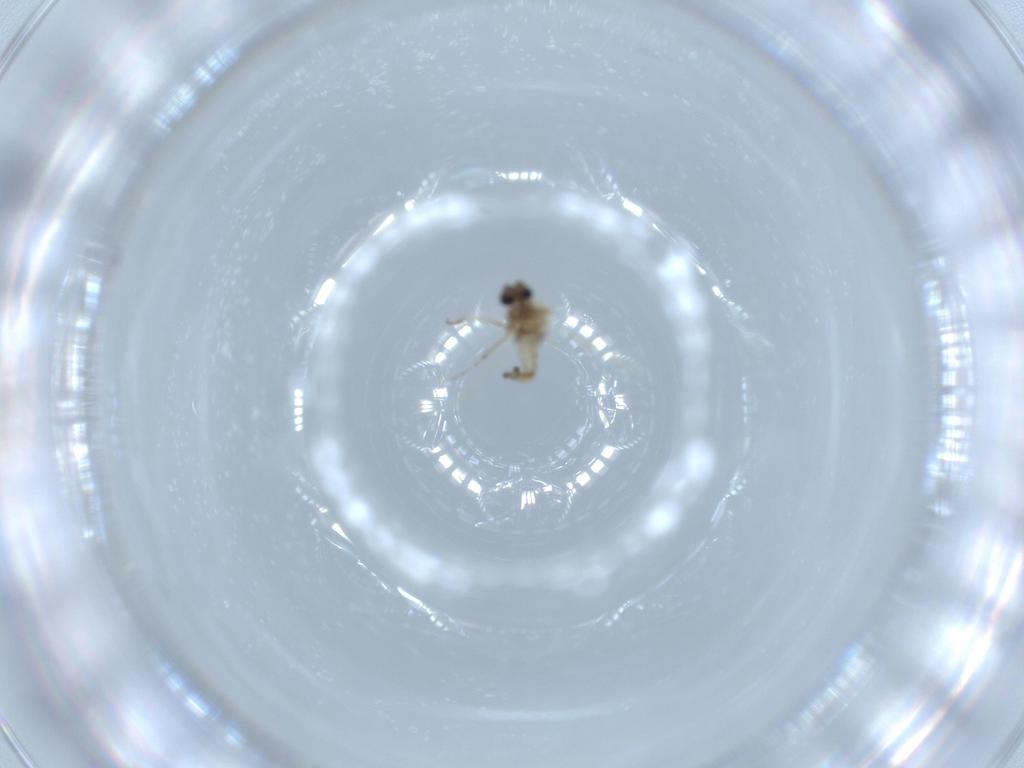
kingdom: Animalia
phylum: Arthropoda
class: Insecta
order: Diptera
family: Ceratopogonidae
